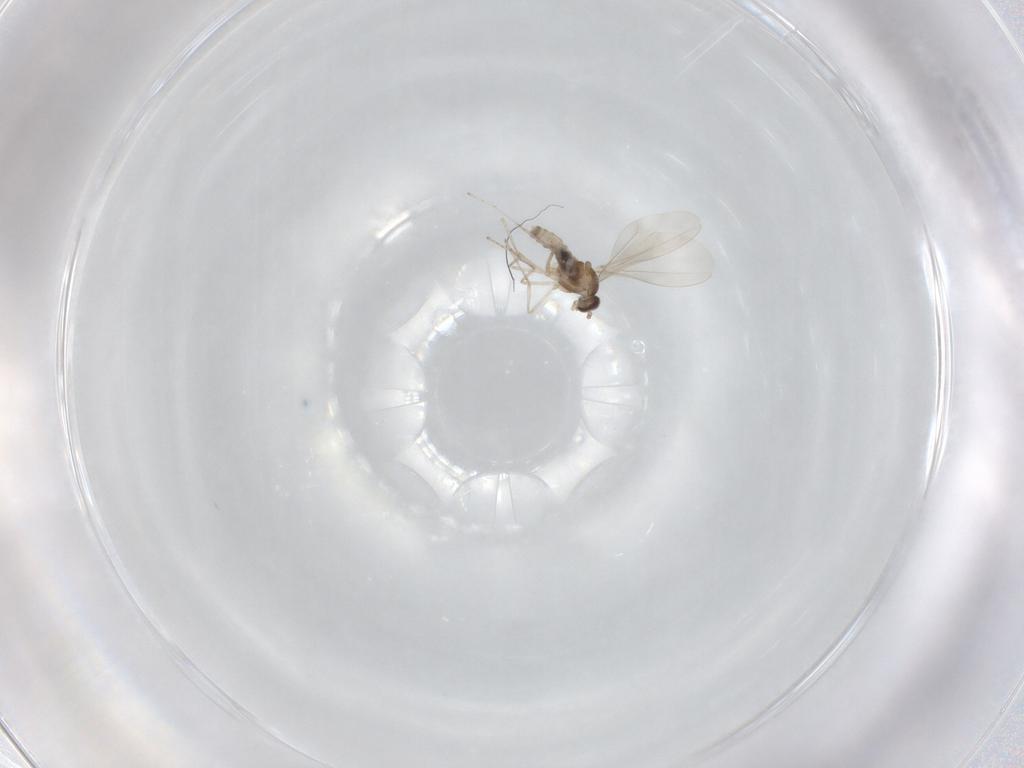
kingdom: Animalia
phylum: Arthropoda
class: Insecta
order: Diptera
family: Cecidomyiidae
